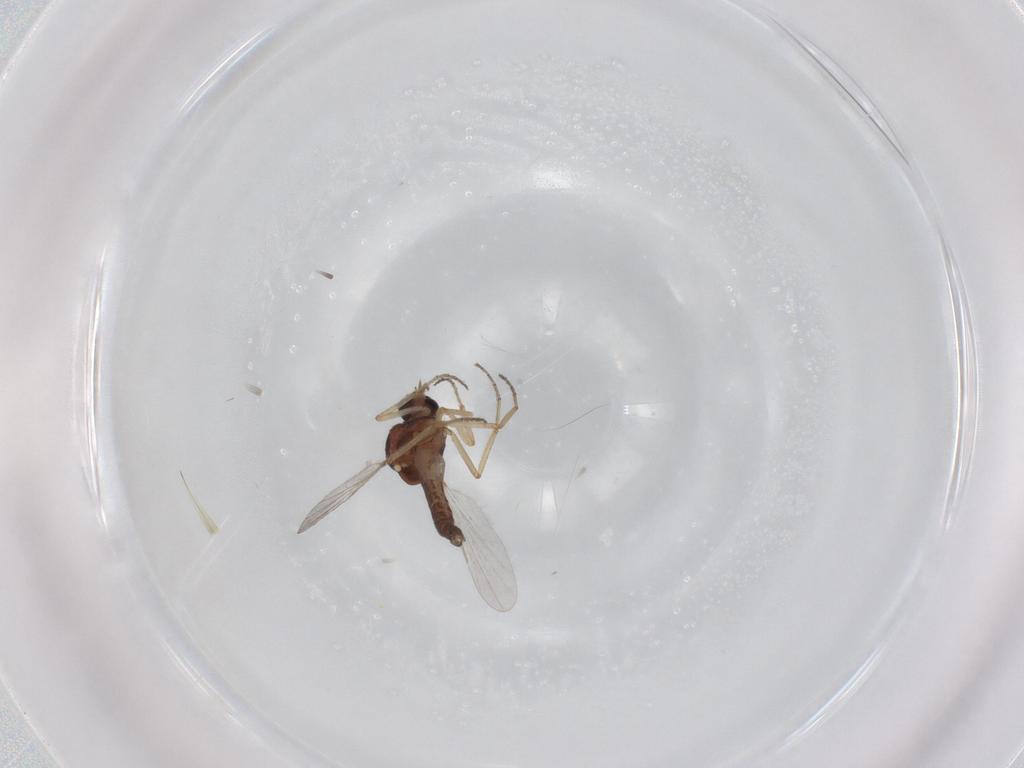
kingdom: Animalia
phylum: Arthropoda
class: Insecta
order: Diptera
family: Ceratopogonidae
